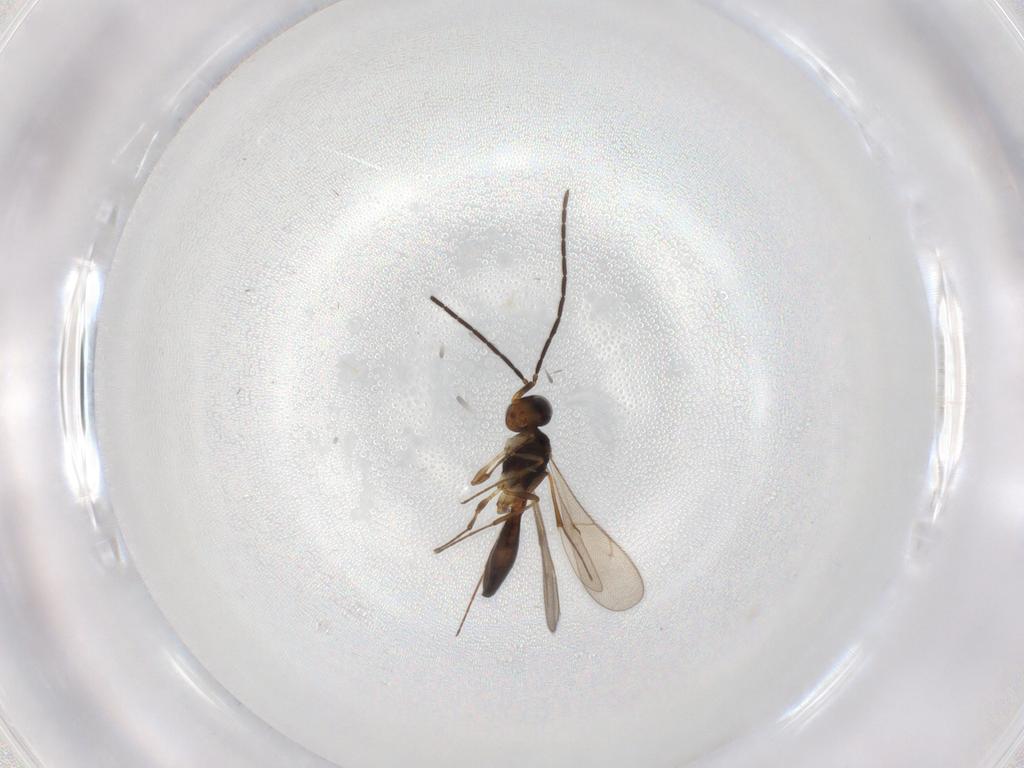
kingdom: Animalia
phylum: Arthropoda
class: Insecta
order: Hymenoptera
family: Scelionidae
